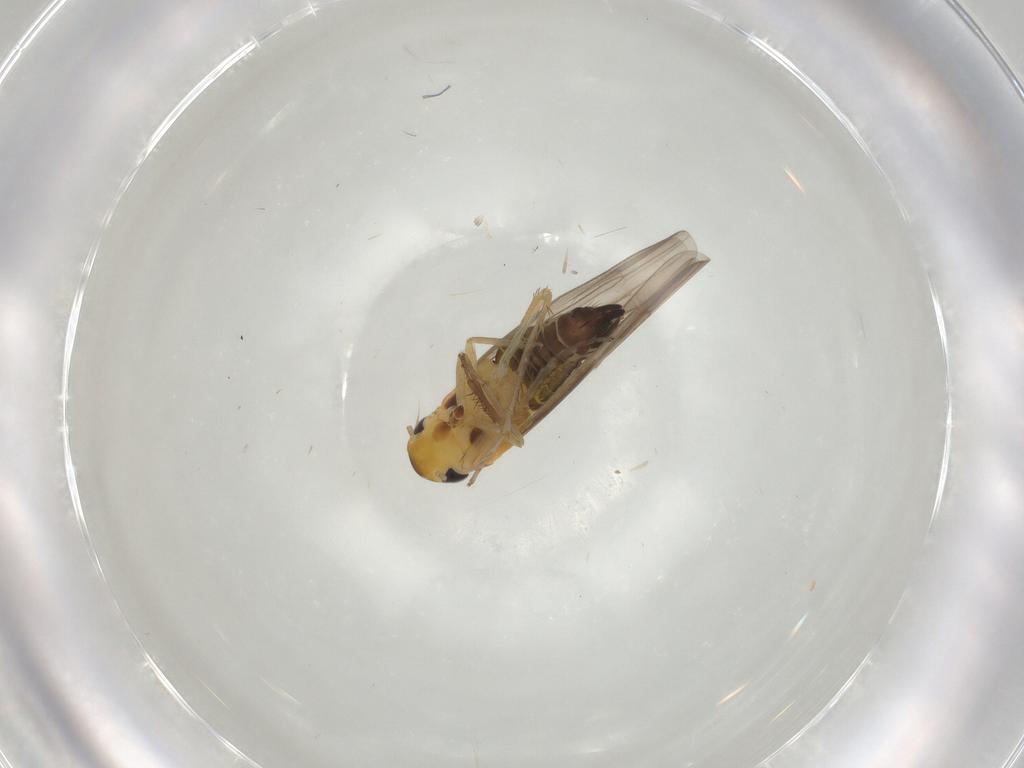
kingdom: Animalia
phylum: Arthropoda
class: Insecta
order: Hemiptera
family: Cicadellidae
